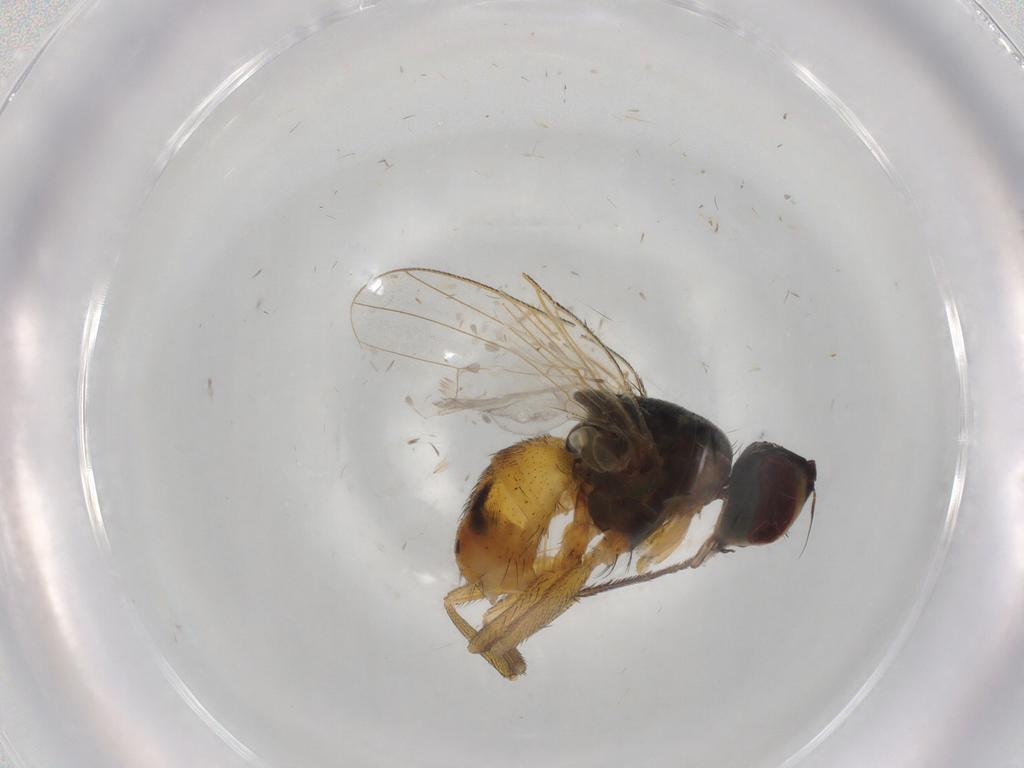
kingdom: Animalia
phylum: Arthropoda
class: Insecta
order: Diptera
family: Muscidae
